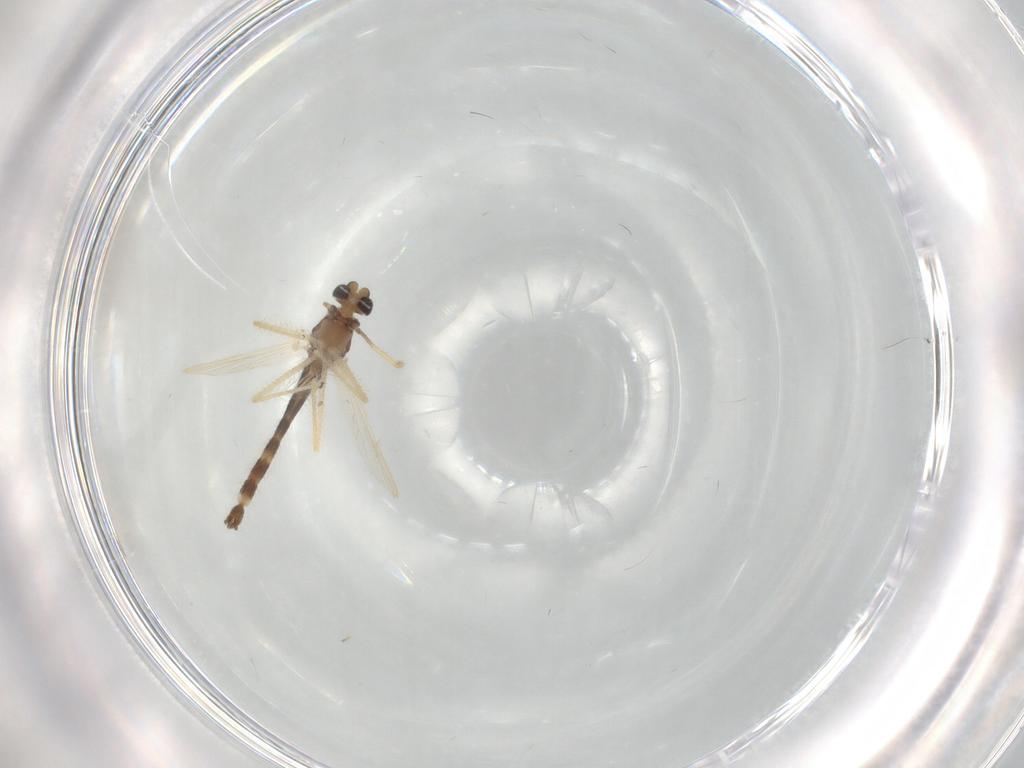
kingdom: Animalia
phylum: Arthropoda
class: Insecta
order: Diptera
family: Chironomidae
